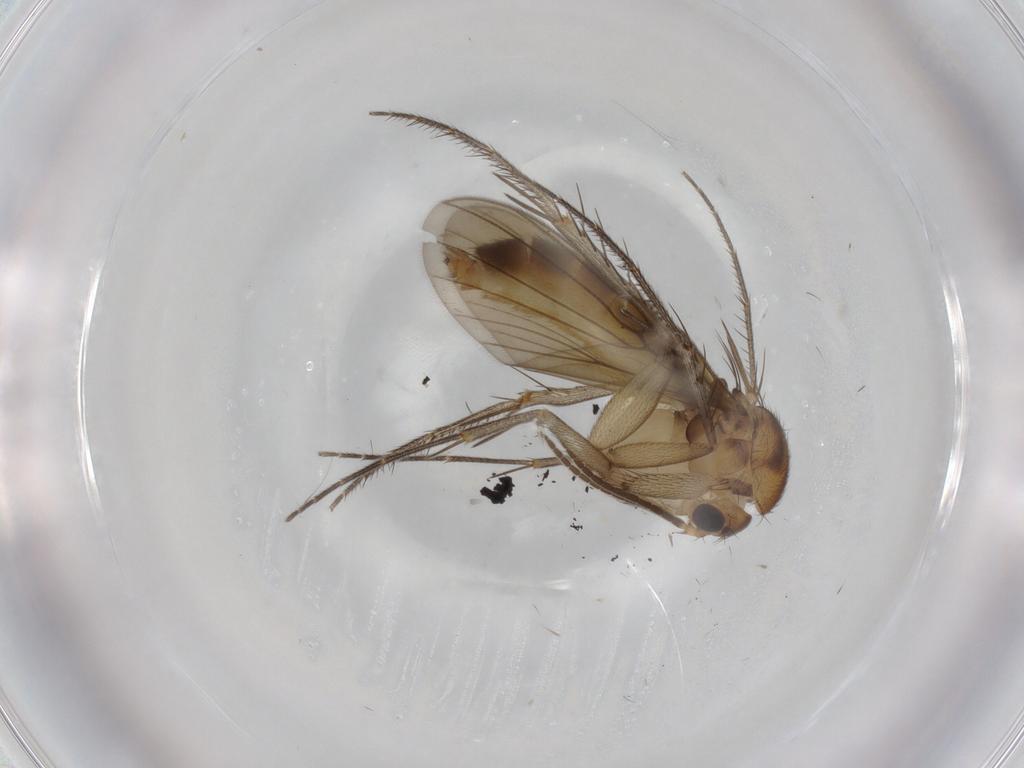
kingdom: Animalia
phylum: Arthropoda
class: Insecta
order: Diptera
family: Mycetophilidae
